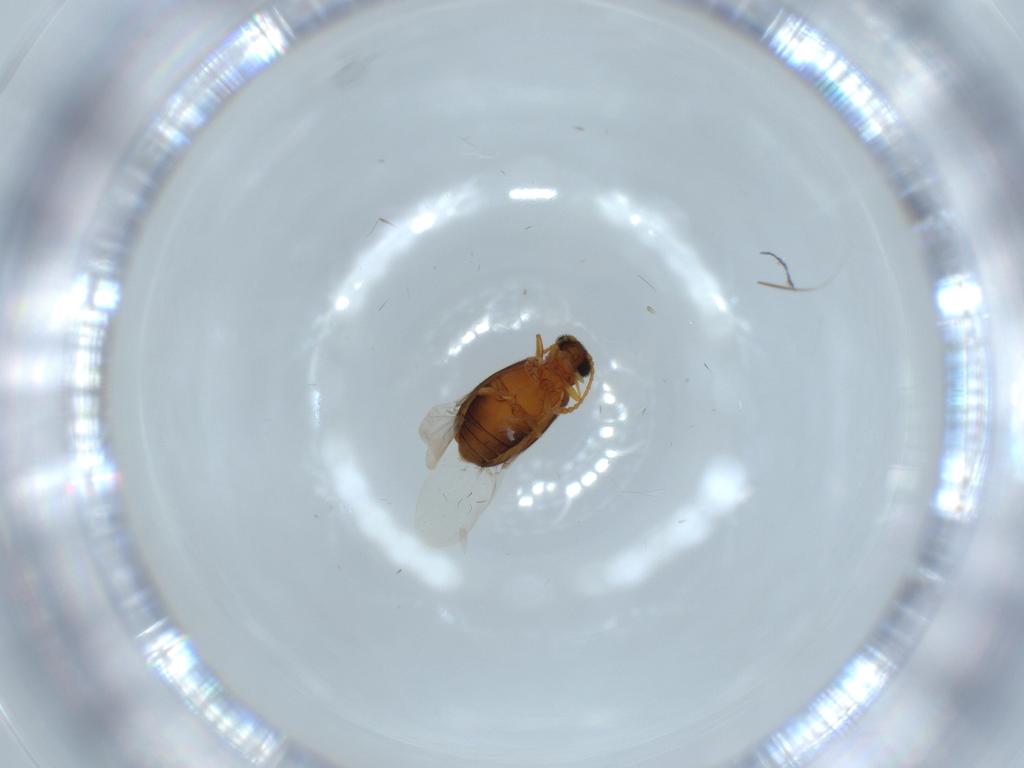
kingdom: Animalia
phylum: Arthropoda
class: Insecta
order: Coleoptera
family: Aderidae
